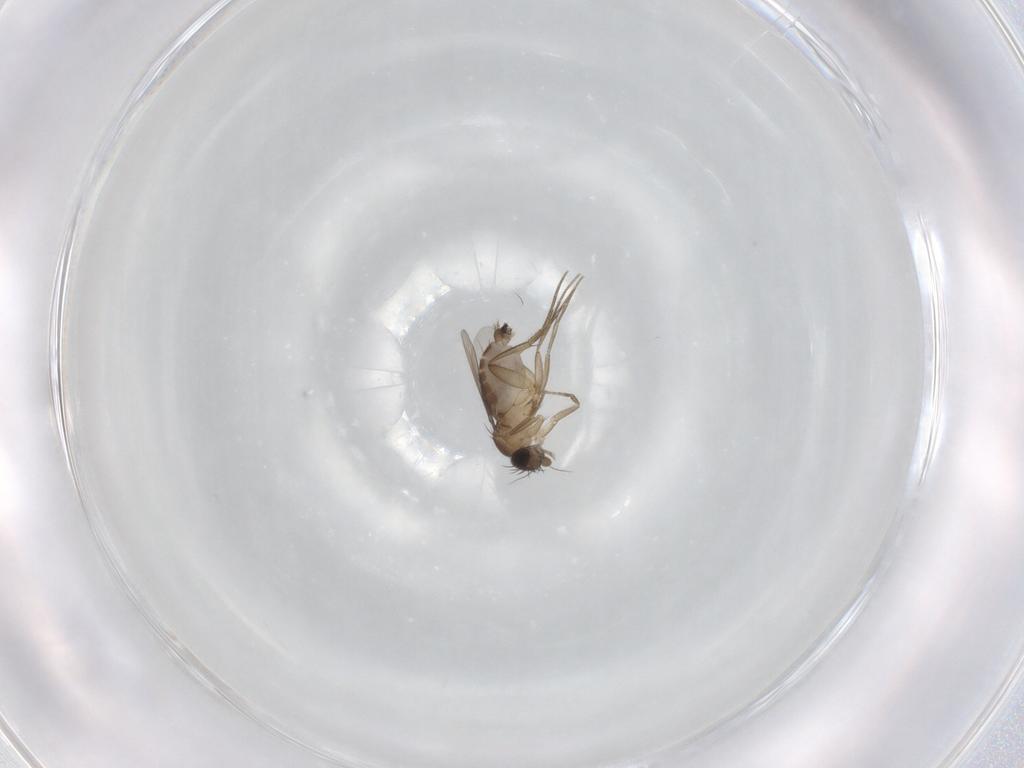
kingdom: Animalia
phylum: Arthropoda
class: Insecta
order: Diptera
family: Phoridae
